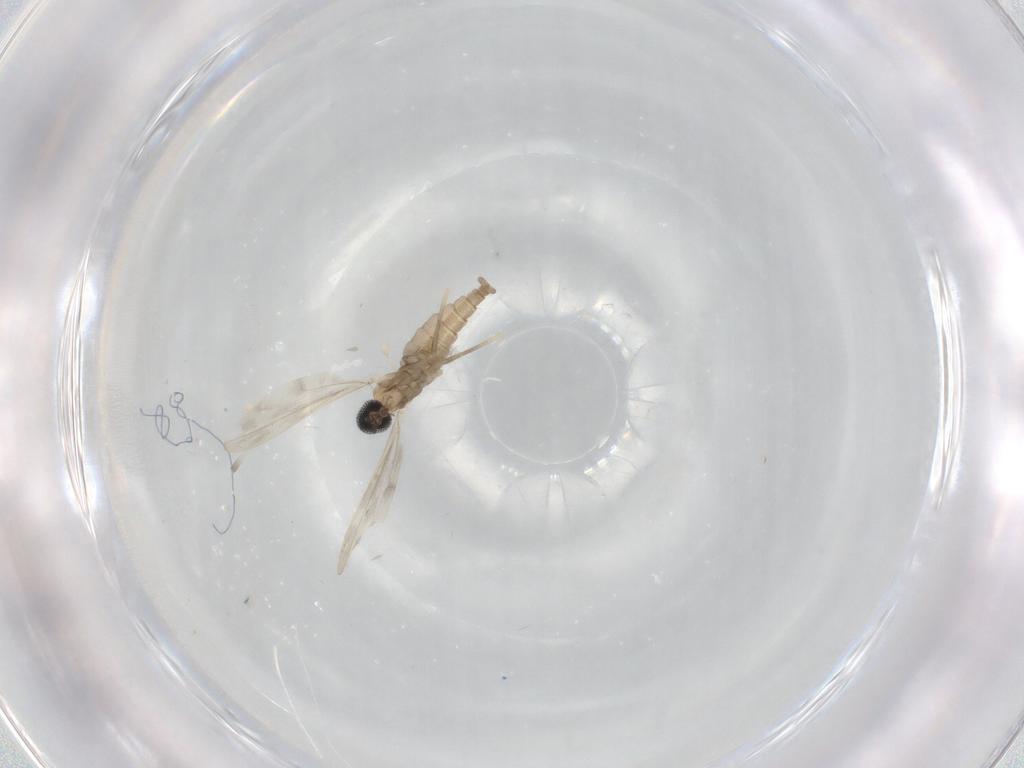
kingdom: Animalia
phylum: Arthropoda
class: Insecta
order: Diptera
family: Cecidomyiidae
